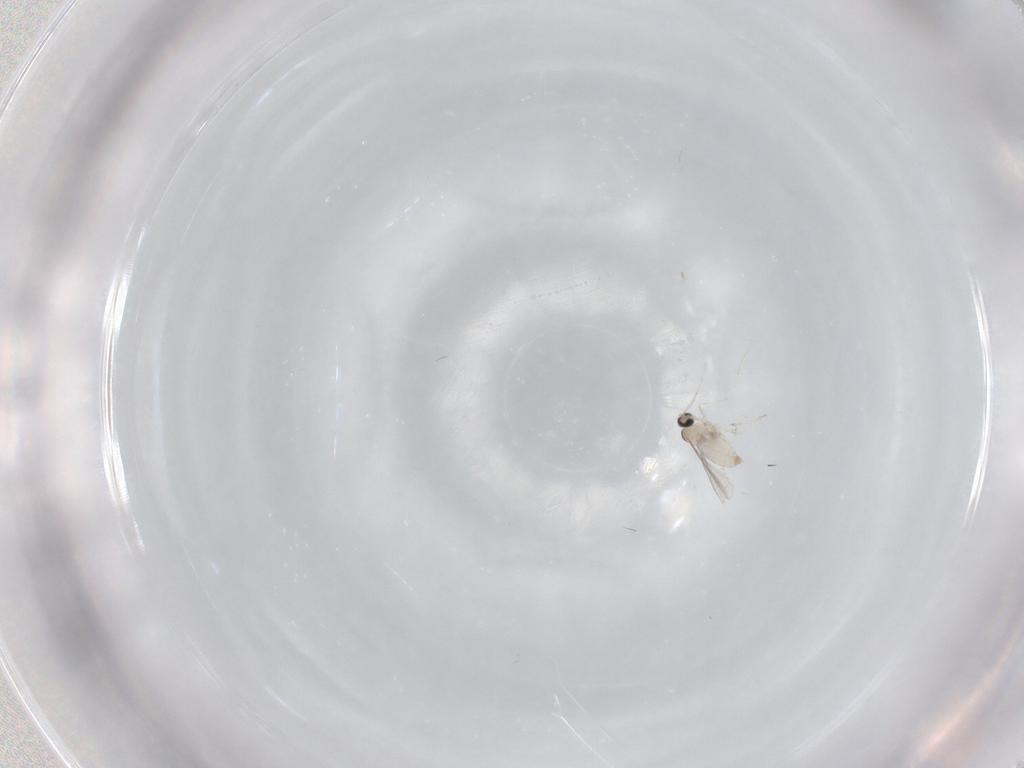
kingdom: Animalia
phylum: Arthropoda
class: Insecta
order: Diptera
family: Cecidomyiidae
